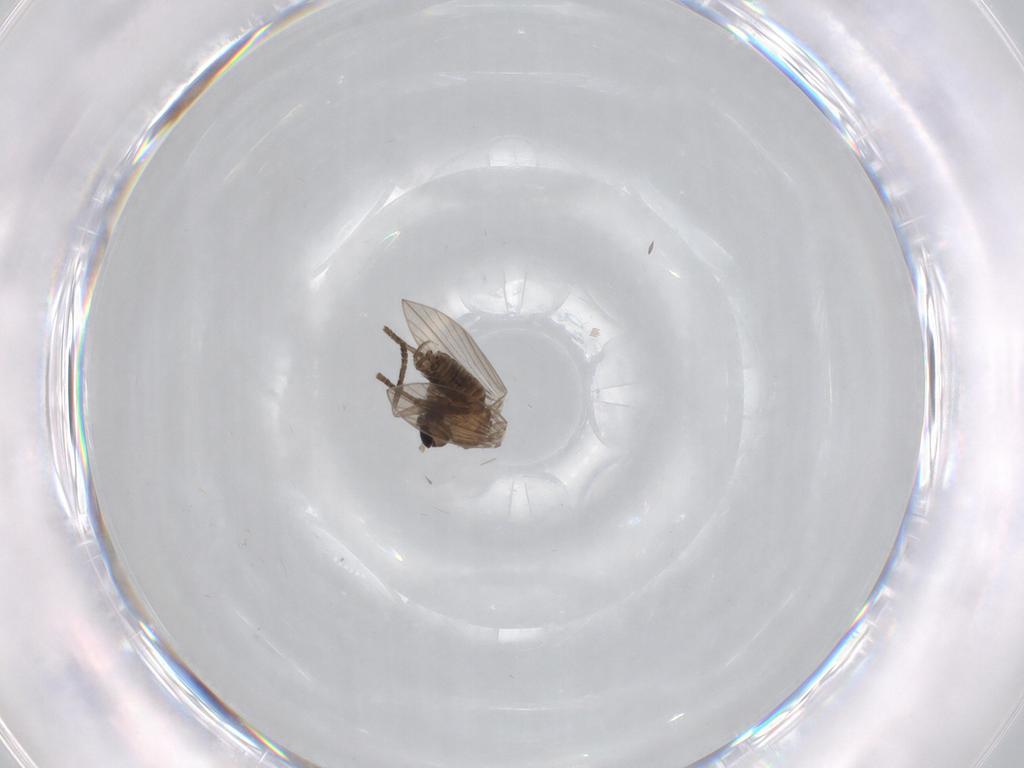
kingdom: Animalia
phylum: Arthropoda
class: Insecta
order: Diptera
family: Psychodidae
